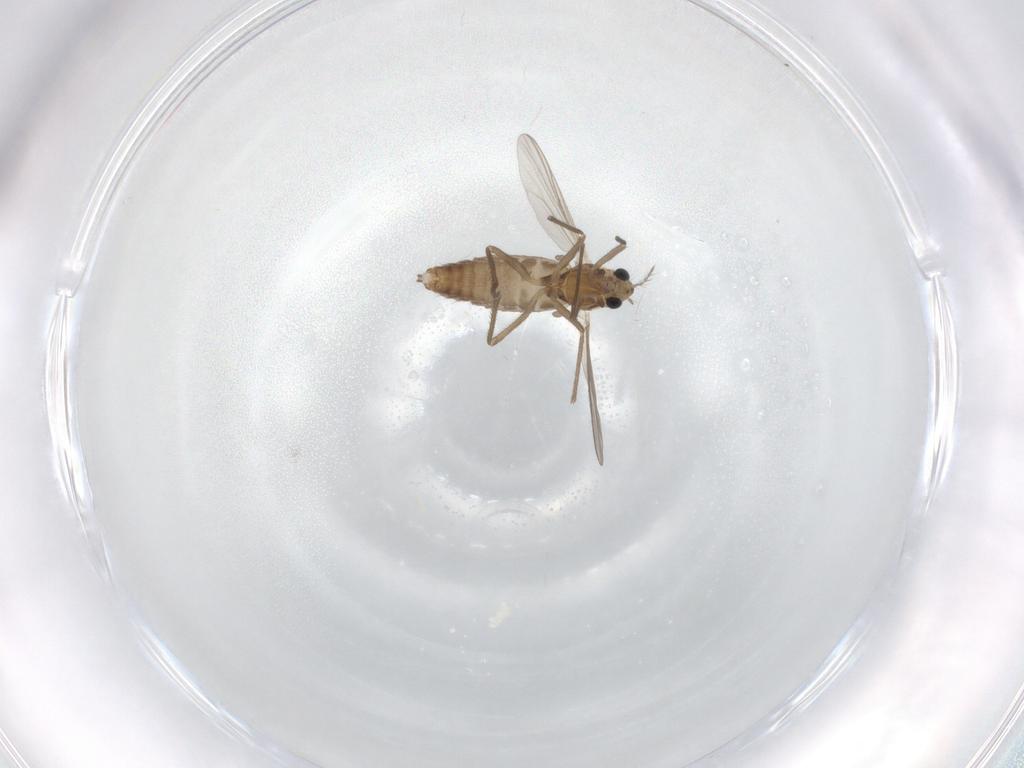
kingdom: Animalia
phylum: Arthropoda
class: Insecta
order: Diptera
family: Chironomidae
